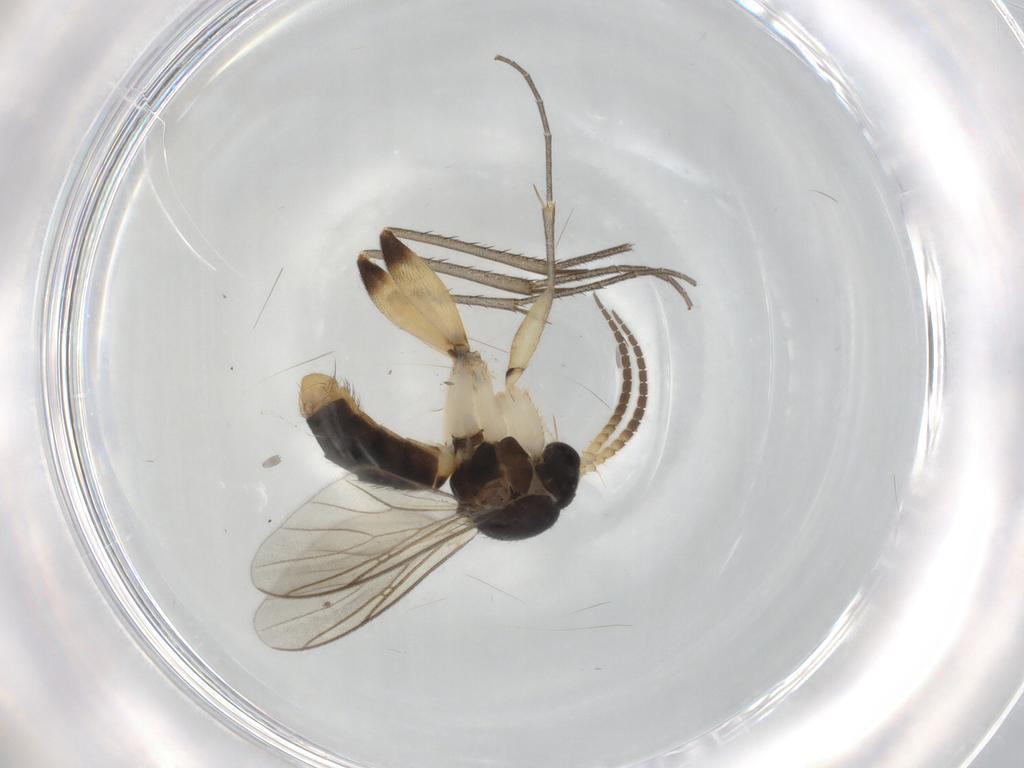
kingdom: Animalia
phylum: Arthropoda
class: Insecta
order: Diptera
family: Mycetophilidae
